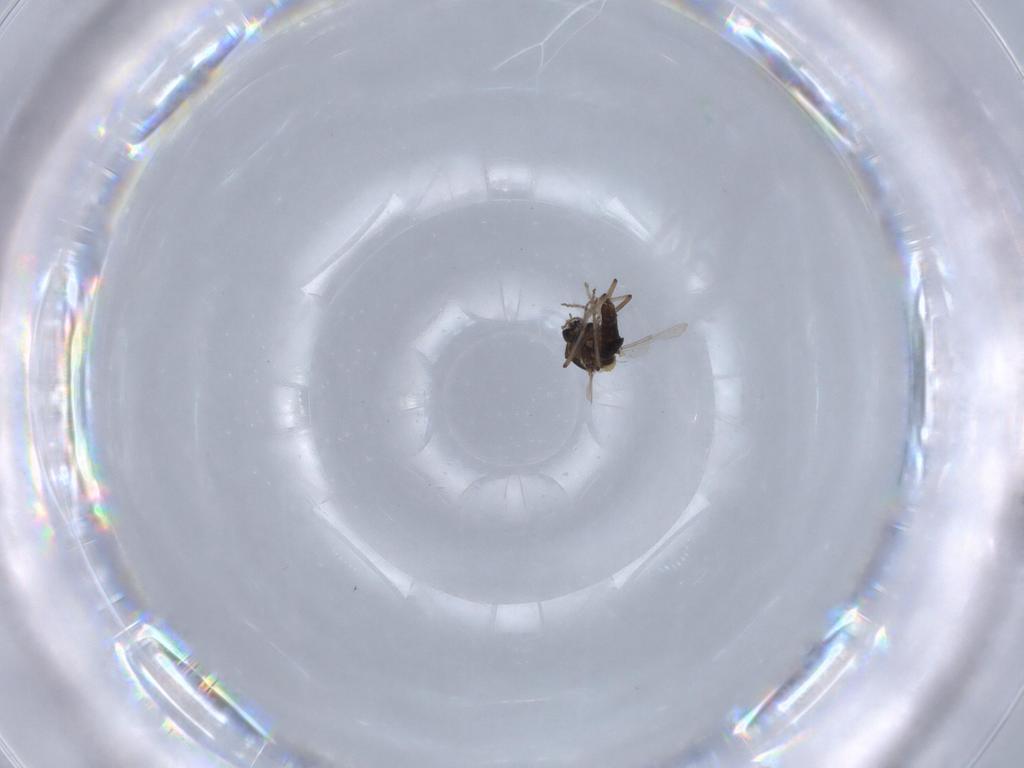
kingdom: Animalia
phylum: Arthropoda
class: Insecta
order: Diptera
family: Ceratopogonidae
